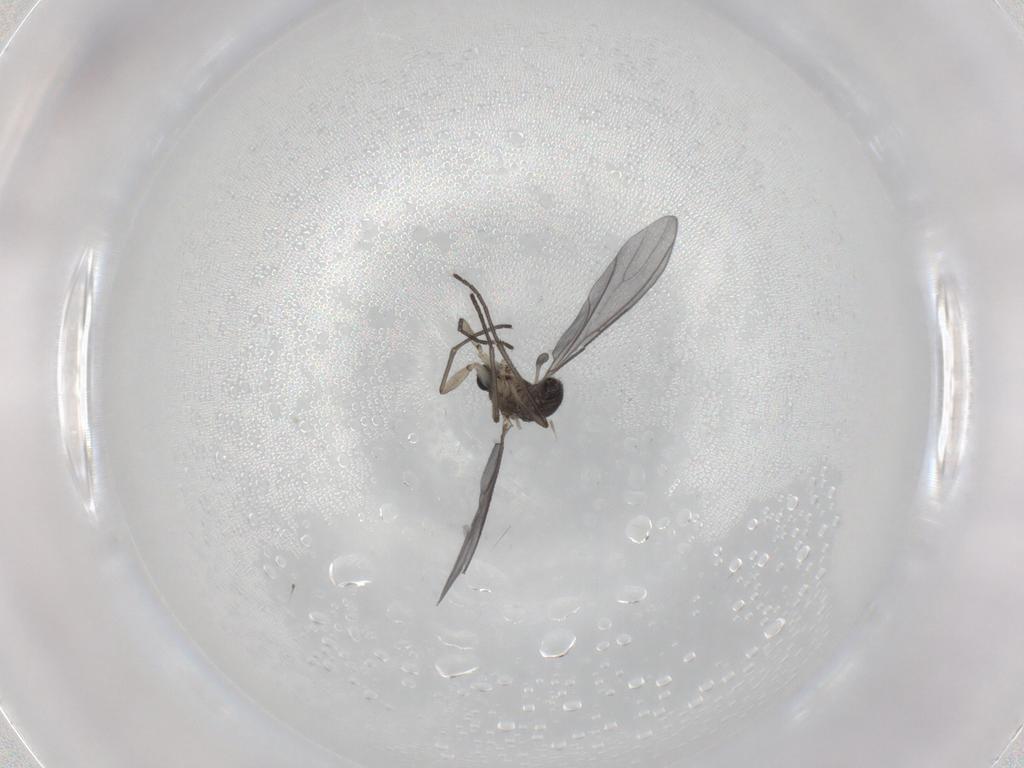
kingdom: Animalia
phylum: Arthropoda
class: Insecta
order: Diptera
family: Sciaridae
